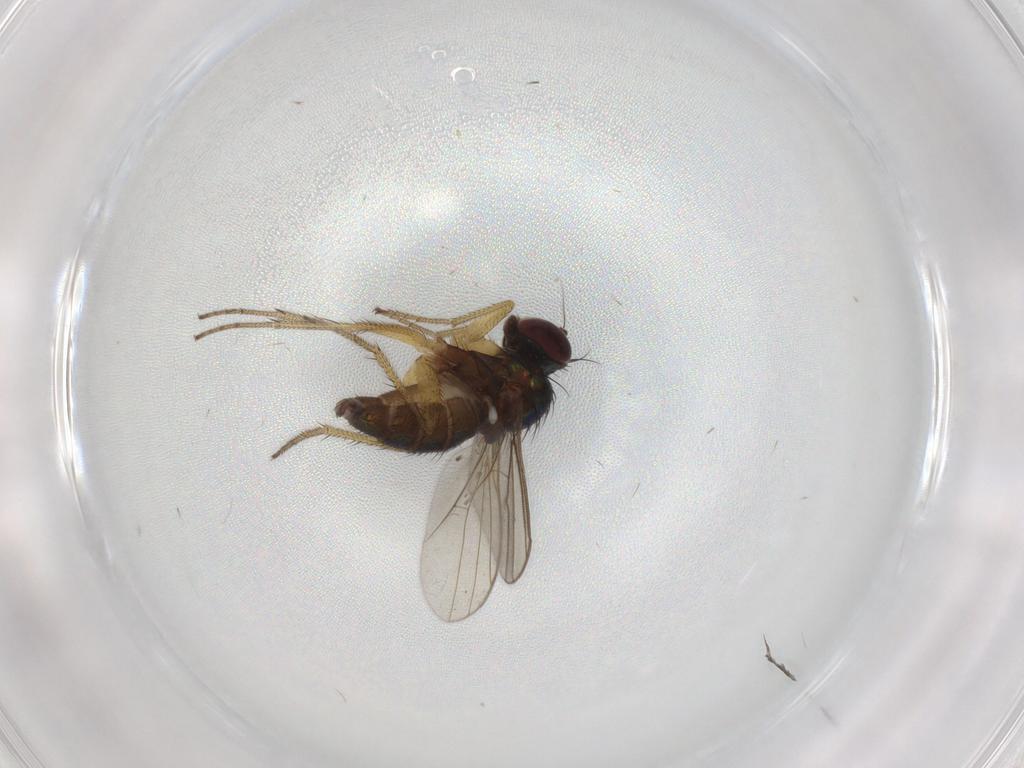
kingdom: Animalia
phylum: Arthropoda
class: Insecta
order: Diptera
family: Dolichopodidae
